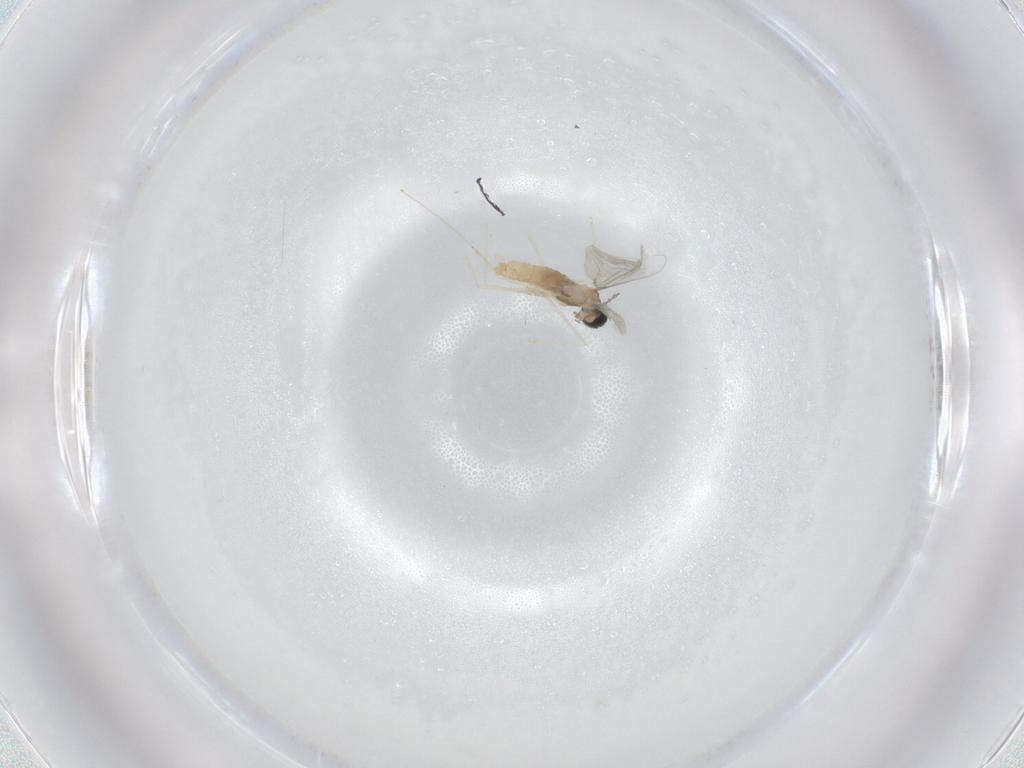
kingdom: Animalia
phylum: Arthropoda
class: Insecta
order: Diptera
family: Cecidomyiidae
